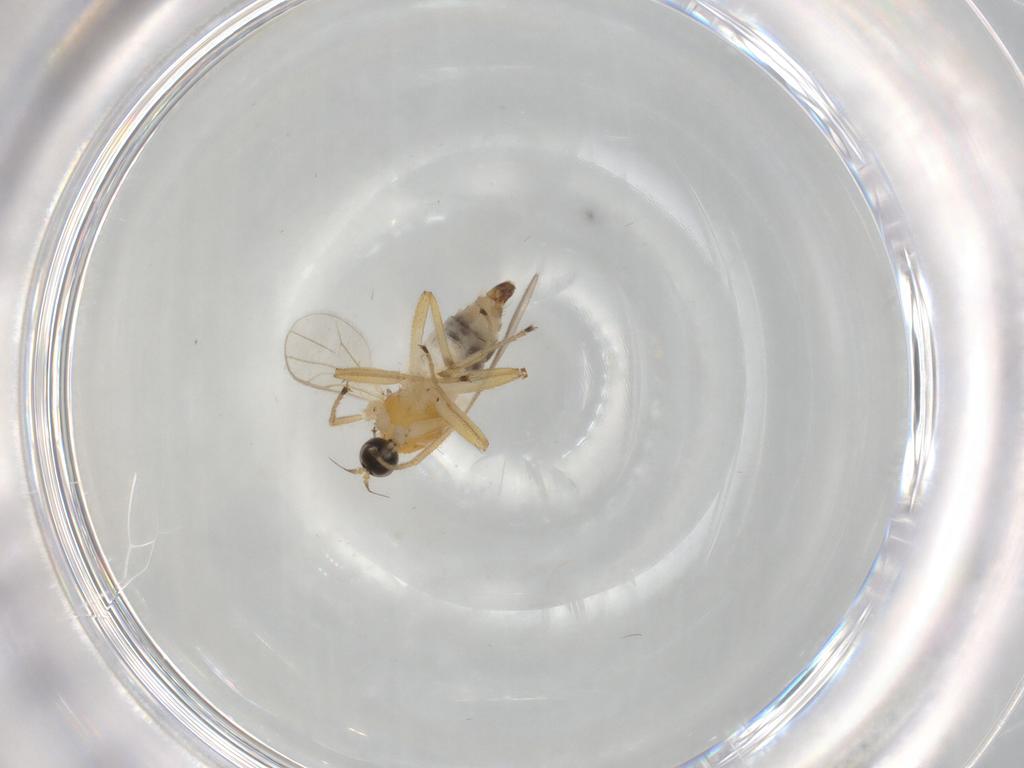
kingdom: Animalia
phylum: Arthropoda
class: Insecta
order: Diptera
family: Hybotidae
